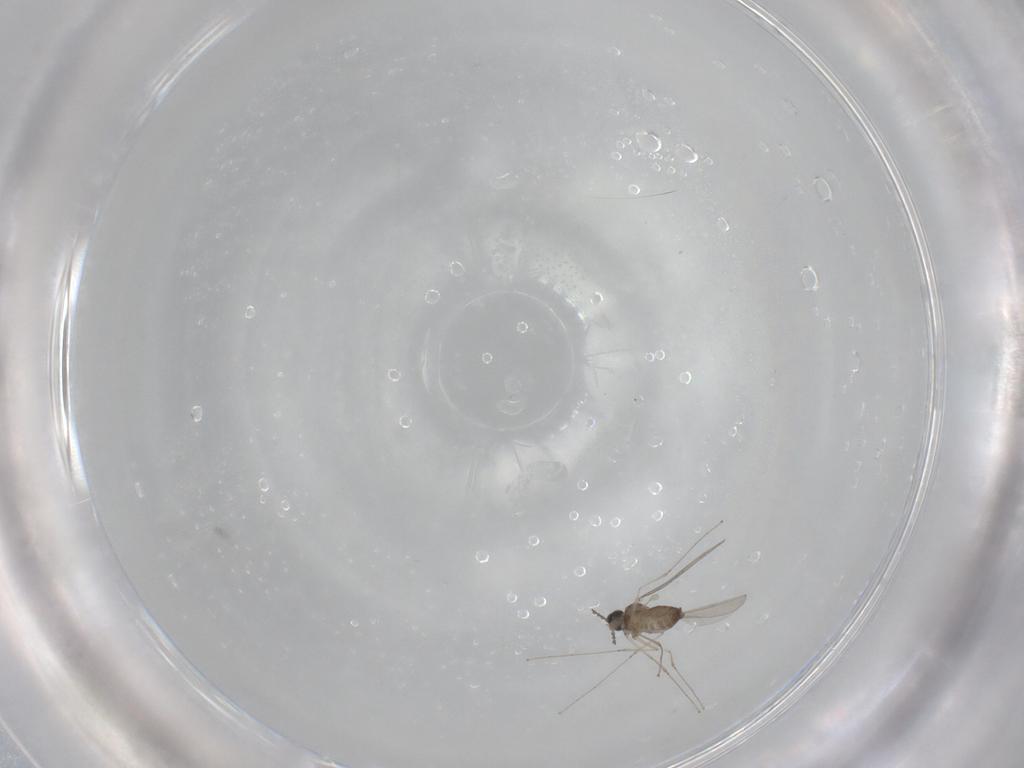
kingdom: Animalia
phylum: Arthropoda
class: Insecta
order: Diptera
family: Cecidomyiidae
